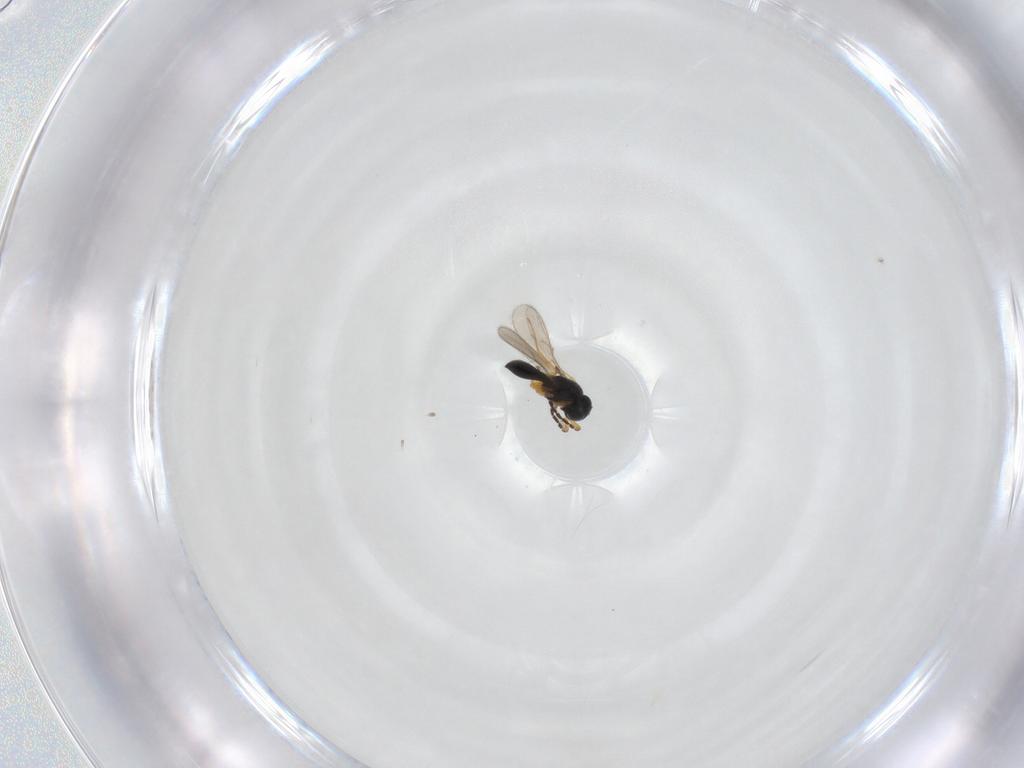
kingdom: Animalia
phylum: Arthropoda
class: Insecta
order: Hymenoptera
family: Scelionidae
